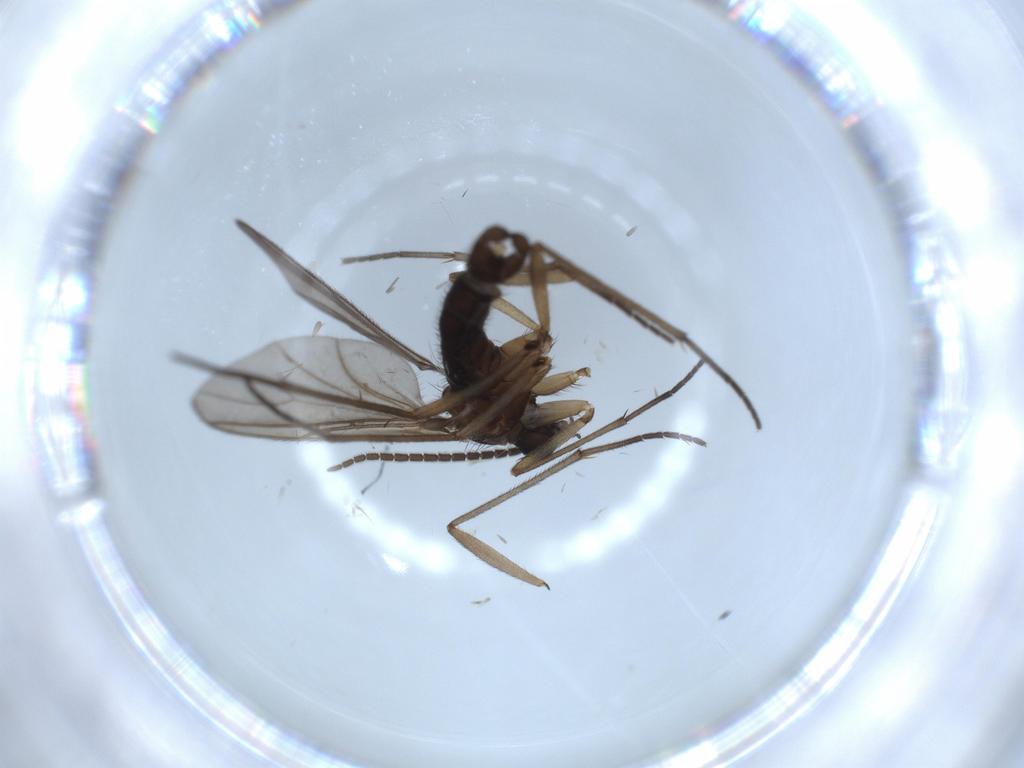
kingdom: Animalia
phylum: Arthropoda
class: Insecta
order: Diptera
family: Sciaridae
